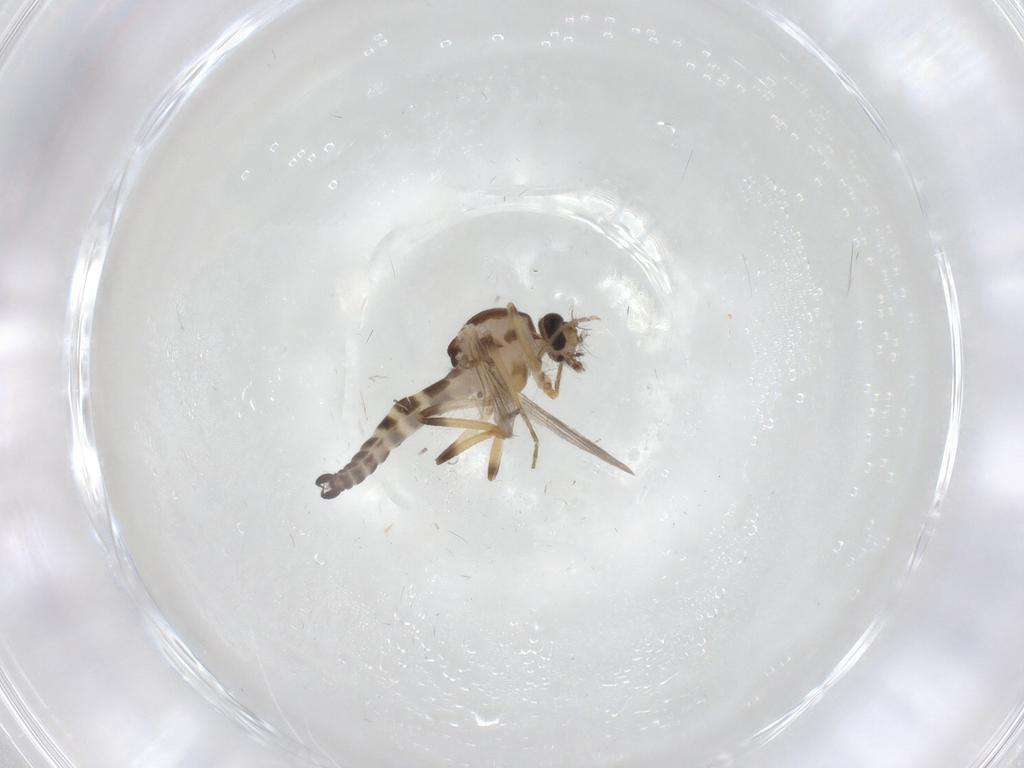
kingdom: Animalia
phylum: Arthropoda
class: Insecta
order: Diptera
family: Ceratopogonidae
